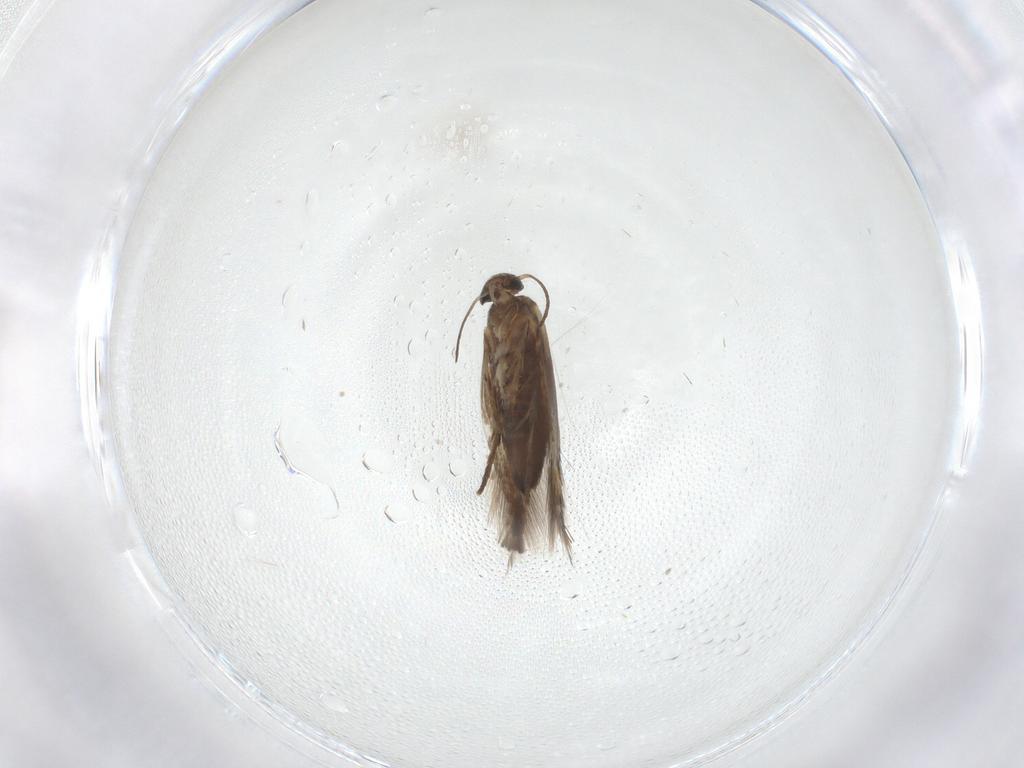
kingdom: Animalia
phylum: Arthropoda
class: Insecta
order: Lepidoptera
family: Heliozelidae
